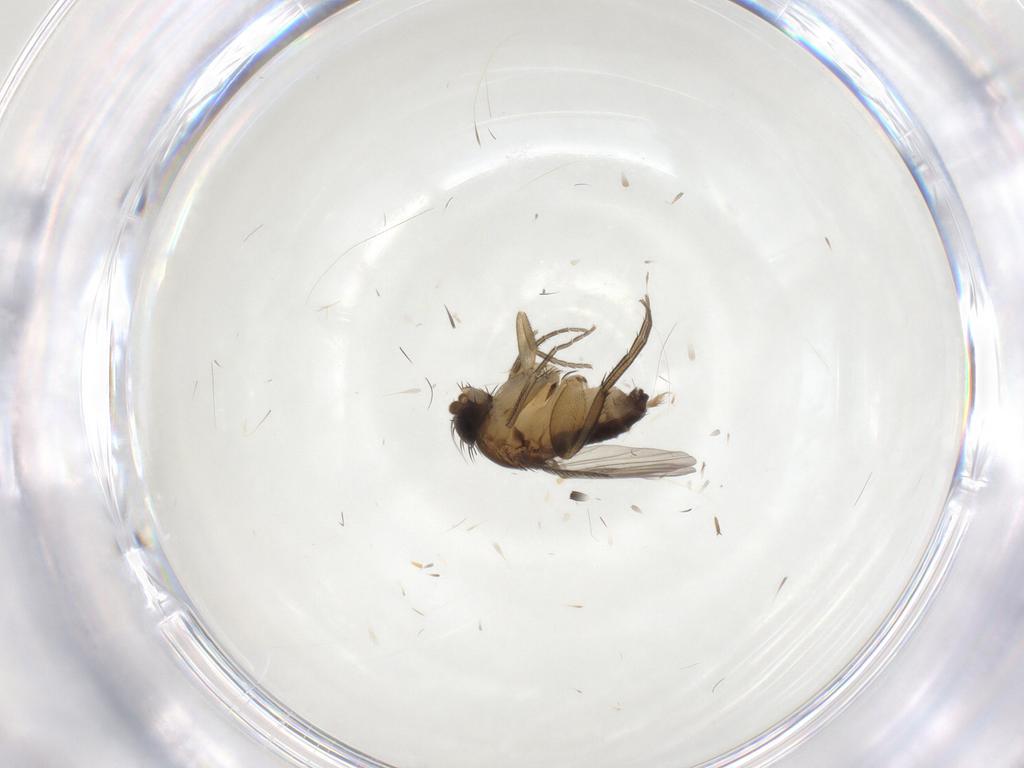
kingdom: Animalia
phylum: Arthropoda
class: Insecta
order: Diptera
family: Phoridae
